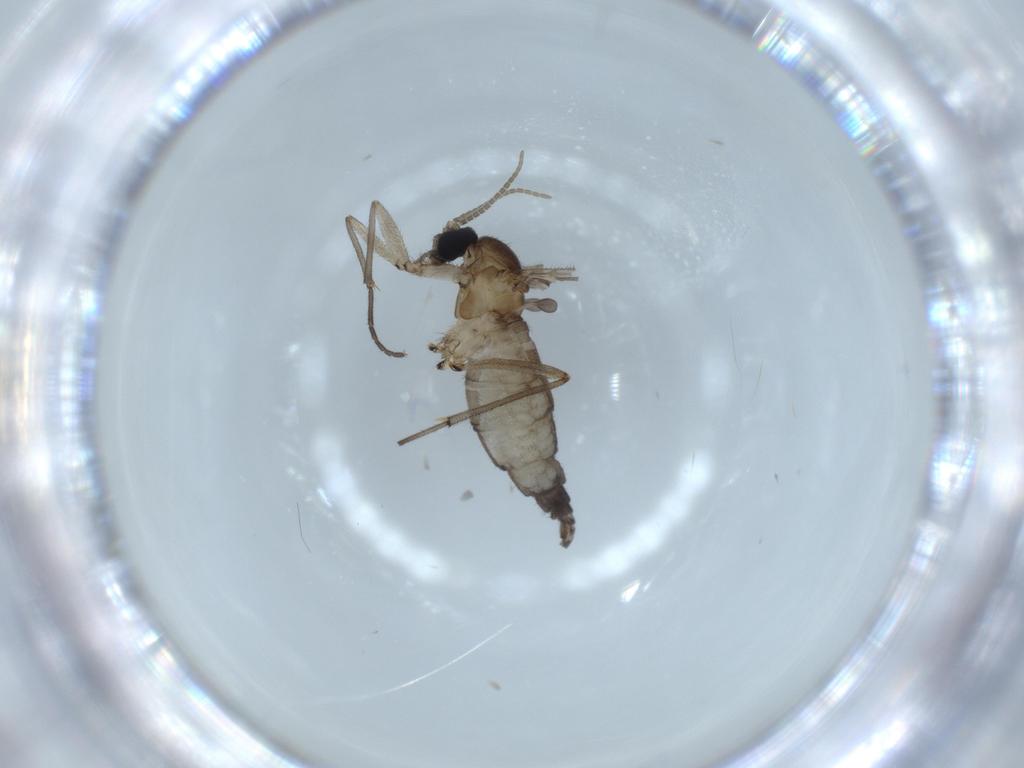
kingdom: Animalia
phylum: Arthropoda
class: Insecta
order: Diptera
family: Sciaridae
